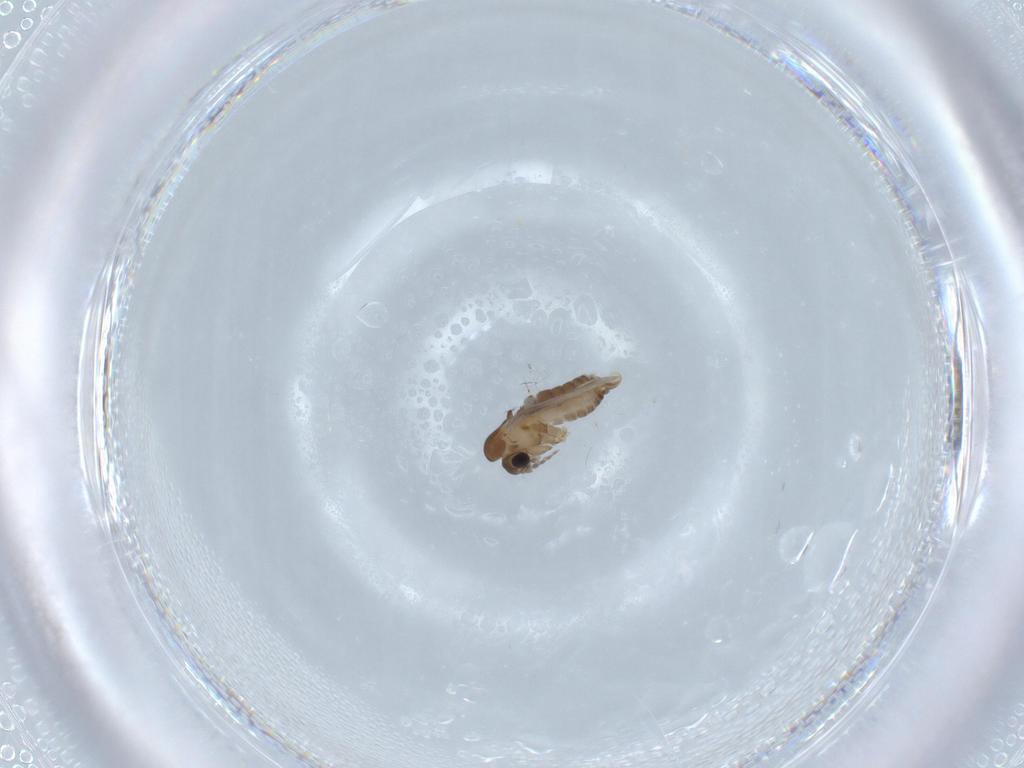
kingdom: Animalia
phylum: Arthropoda
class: Insecta
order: Diptera
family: Psychodidae
